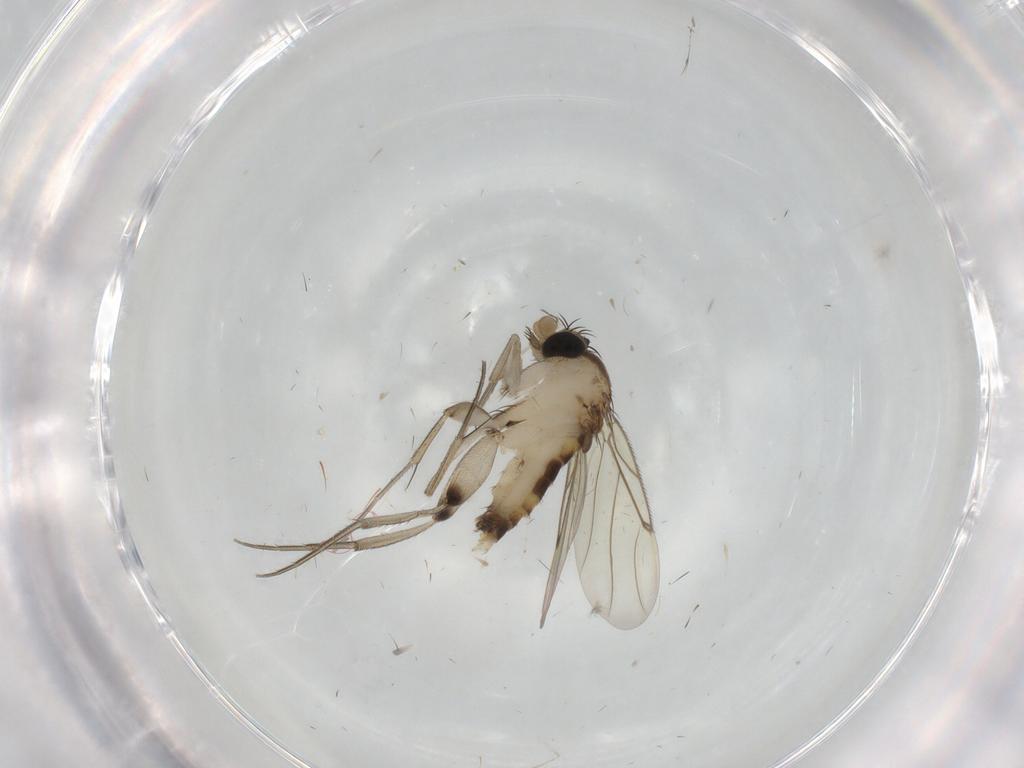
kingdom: Animalia
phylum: Arthropoda
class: Insecta
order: Diptera
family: Cecidomyiidae
